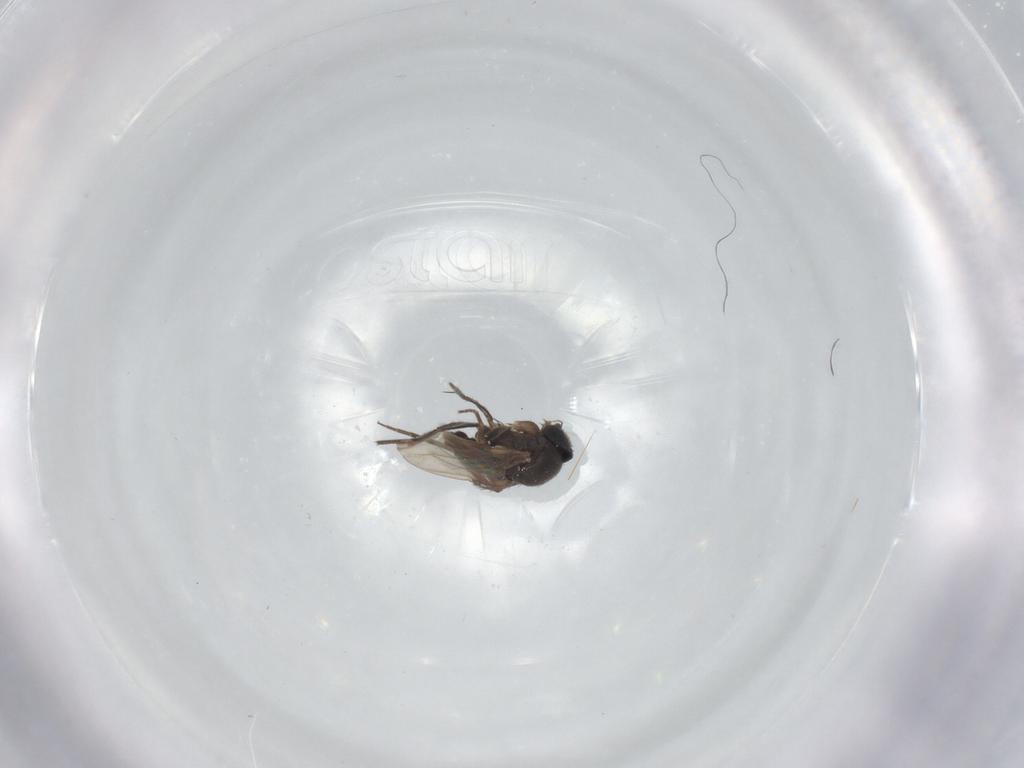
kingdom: Animalia
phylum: Arthropoda
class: Insecta
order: Diptera
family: Phoridae
